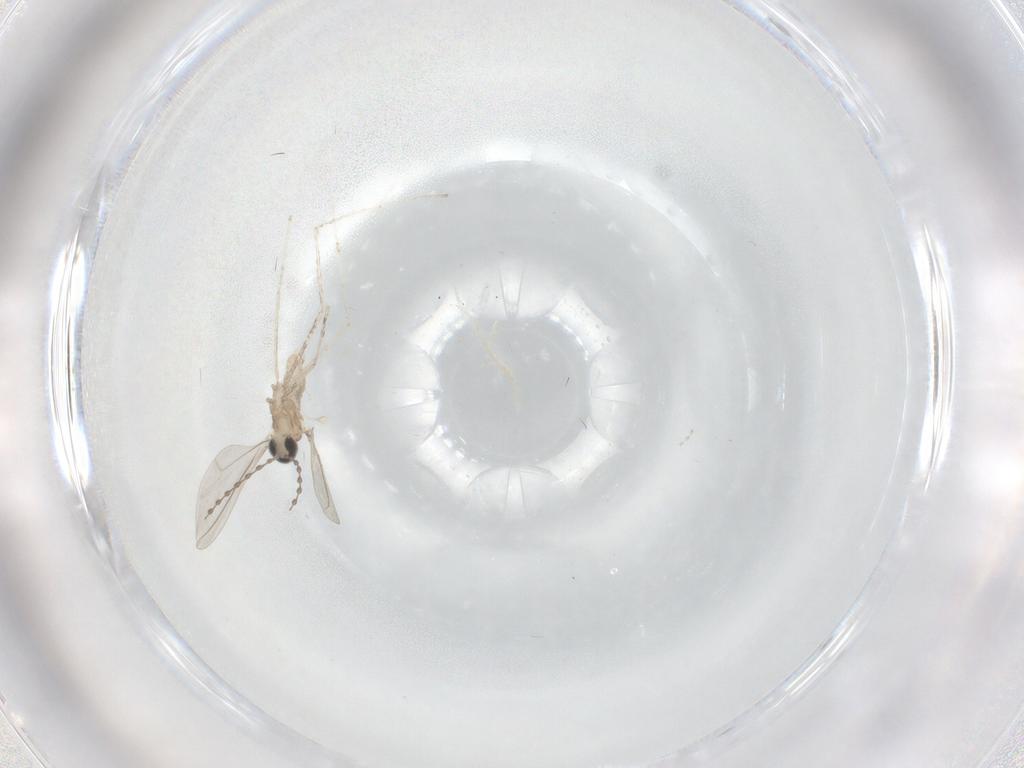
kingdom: Animalia
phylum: Arthropoda
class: Insecta
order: Diptera
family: Cecidomyiidae
